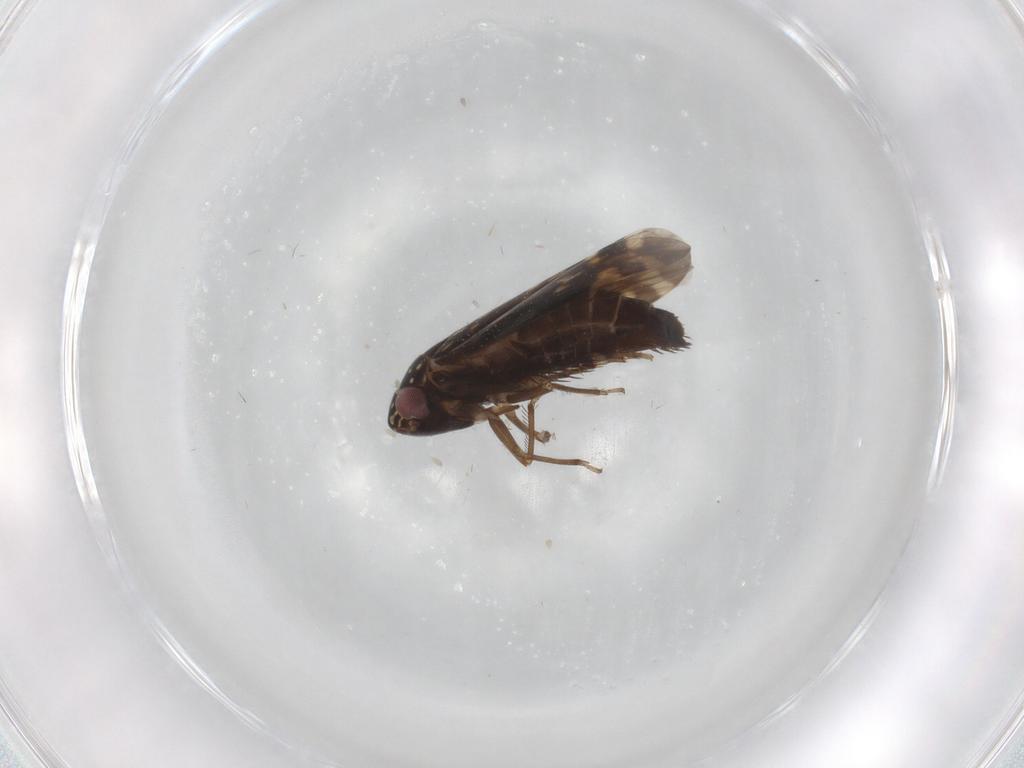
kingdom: Animalia
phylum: Arthropoda
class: Insecta
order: Hemiptera
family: Cicadellidae
